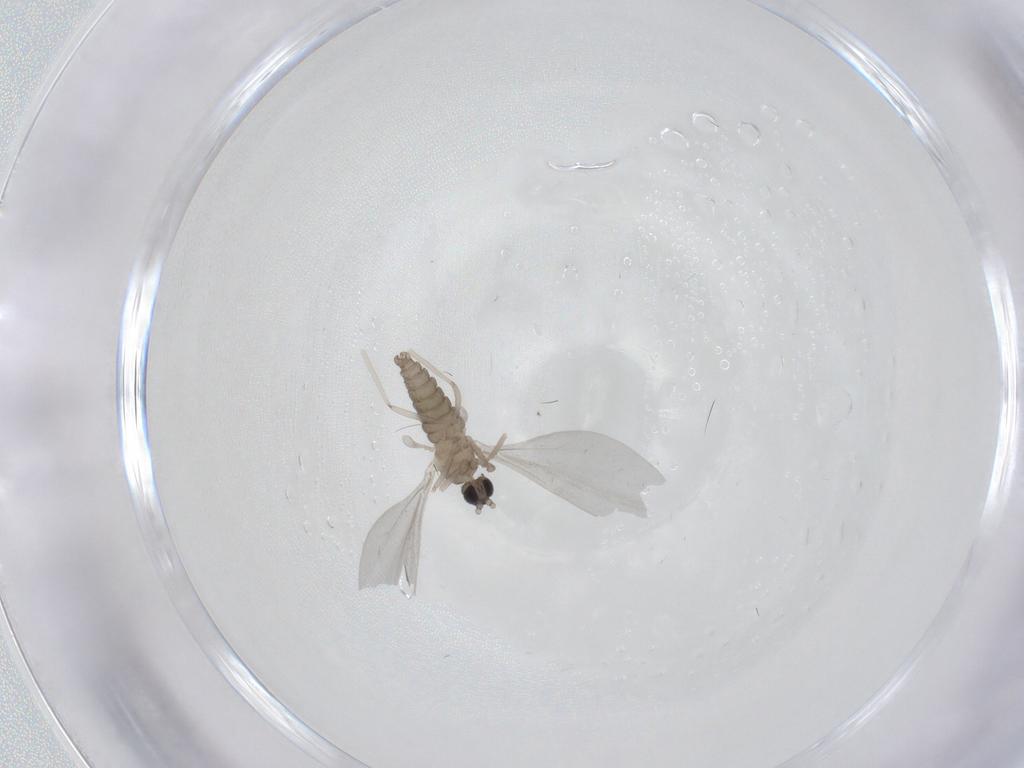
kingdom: Animalia
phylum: Arthropoda
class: Insecta
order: Diptera
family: Cecidomyiidae
